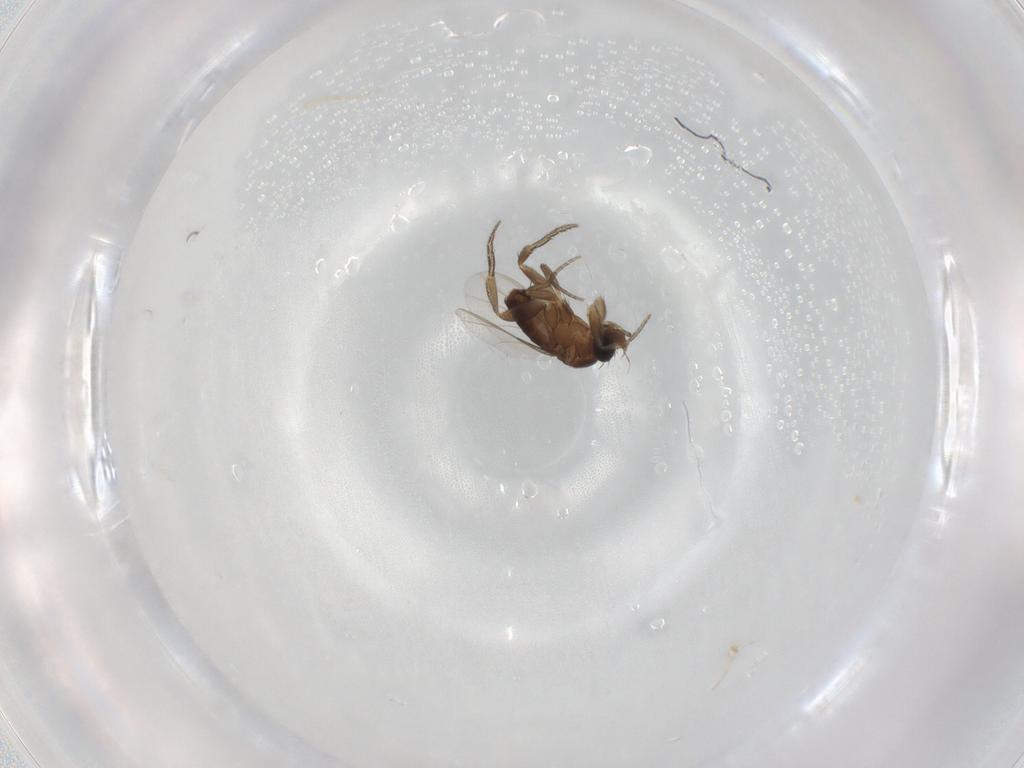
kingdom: Animalia
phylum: Arthropoda
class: Insecta
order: Diptera
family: Phoridae
